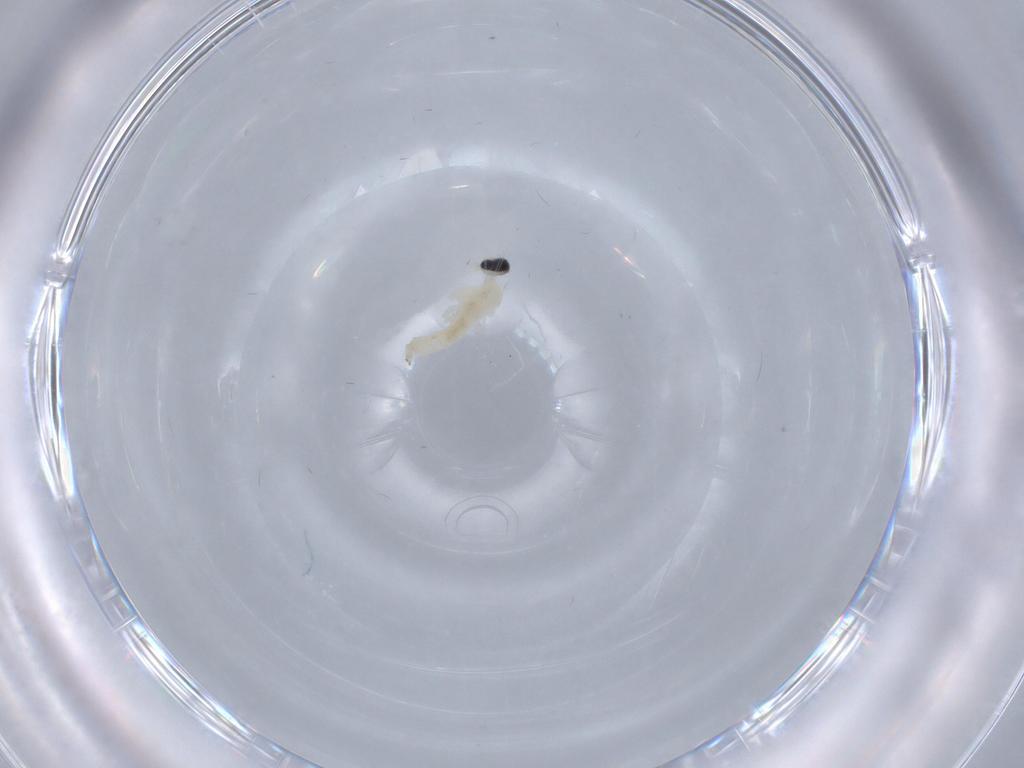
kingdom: Animalia
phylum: Arthropoda
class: Insecta
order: Diptera
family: Cecidomyiidae
